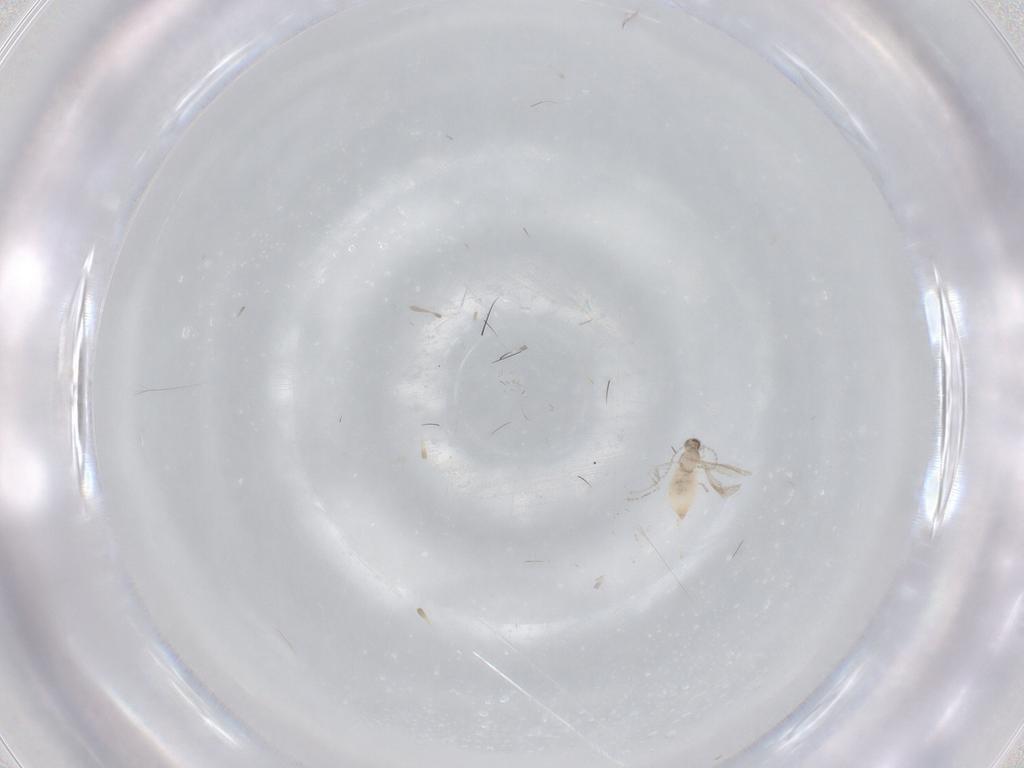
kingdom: Animalia
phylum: Arthropoda
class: Insecta
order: Diptera
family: Cecidomyiidae
